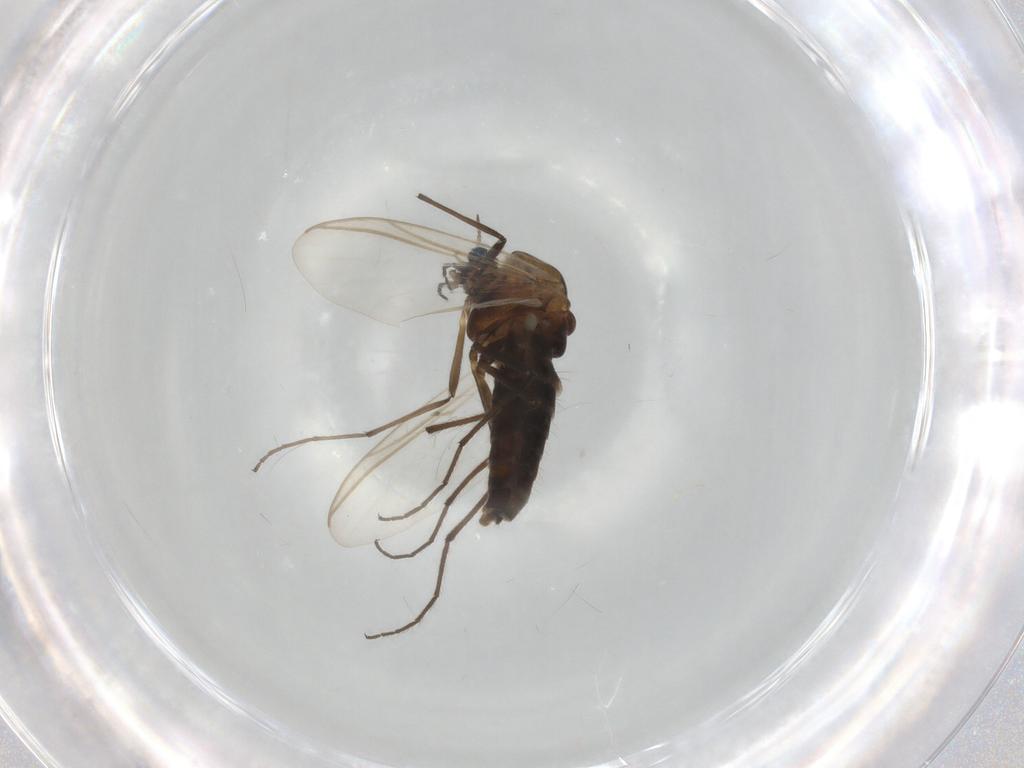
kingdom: Animalia
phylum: Arthropoda
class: Insecta
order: Diptera
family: Chironomidae
